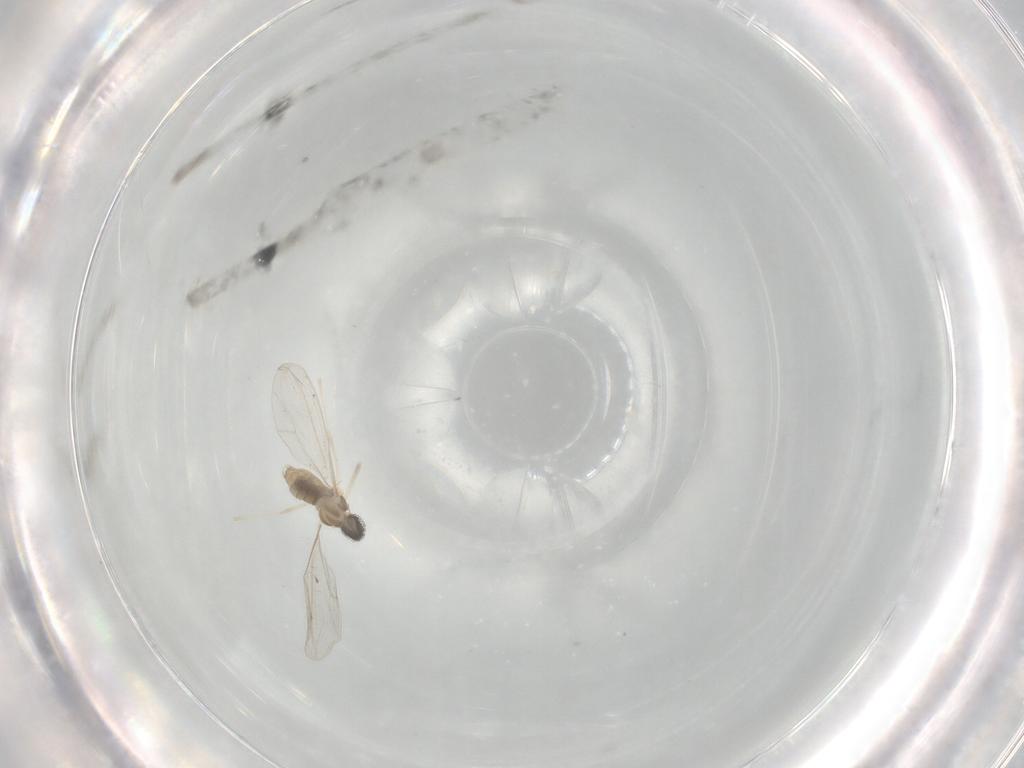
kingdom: Animalia
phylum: Arthropoda
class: Insecta
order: Diptera
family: Cecidomyiidae
